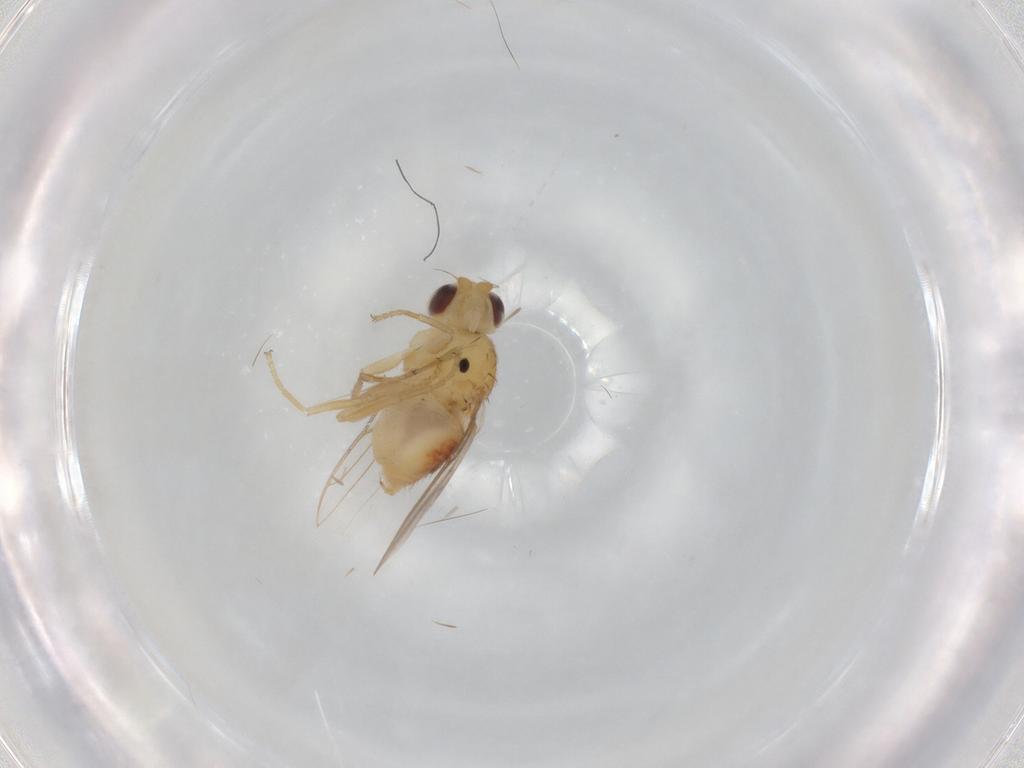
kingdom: Animalia
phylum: Arthropoda
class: Insecta
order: Diptera
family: Chloropidae
